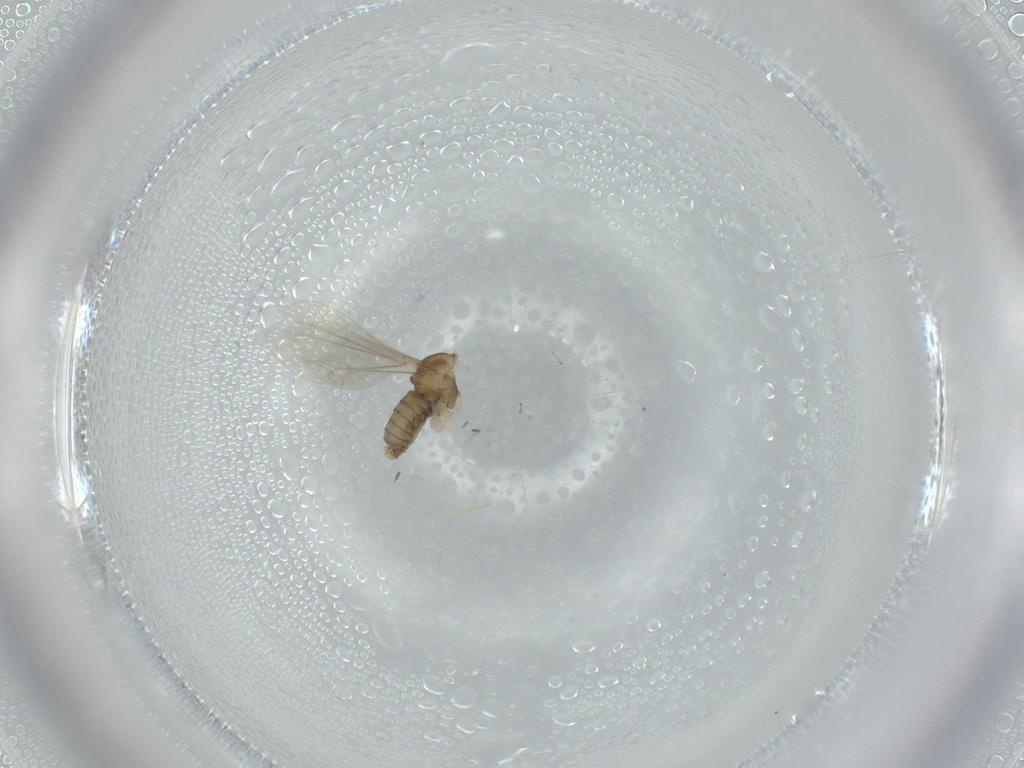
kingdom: Animalia
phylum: Arthropoda
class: Insecta
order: Diptera
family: Cecidomyiidae
